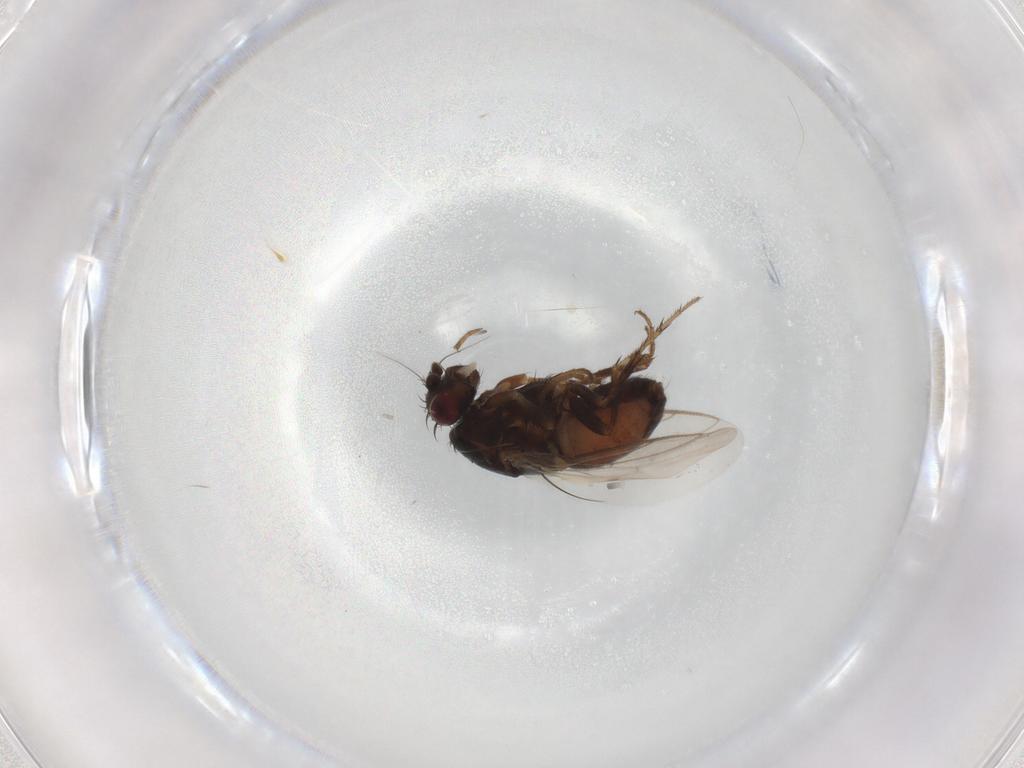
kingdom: Animalia
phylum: Arthropoda
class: Insecta
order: Diptera
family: Sphaeroceridae
